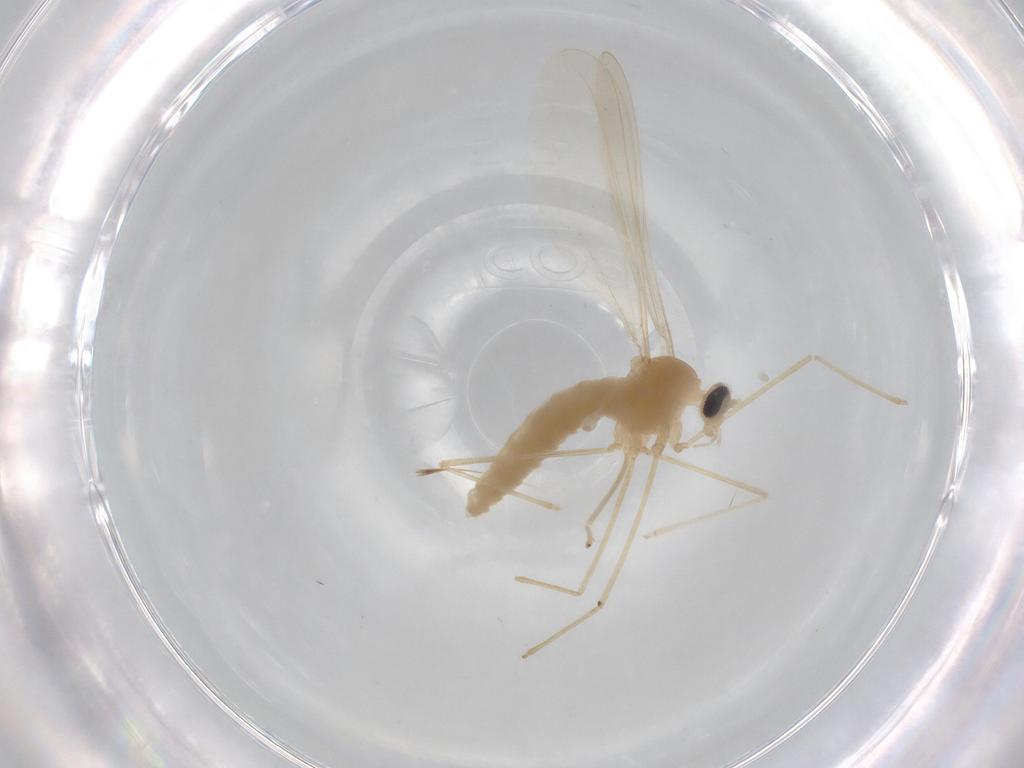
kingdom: Animalia
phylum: Arthropoda
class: Insecta
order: Diptera
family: Cecidomyiidae
